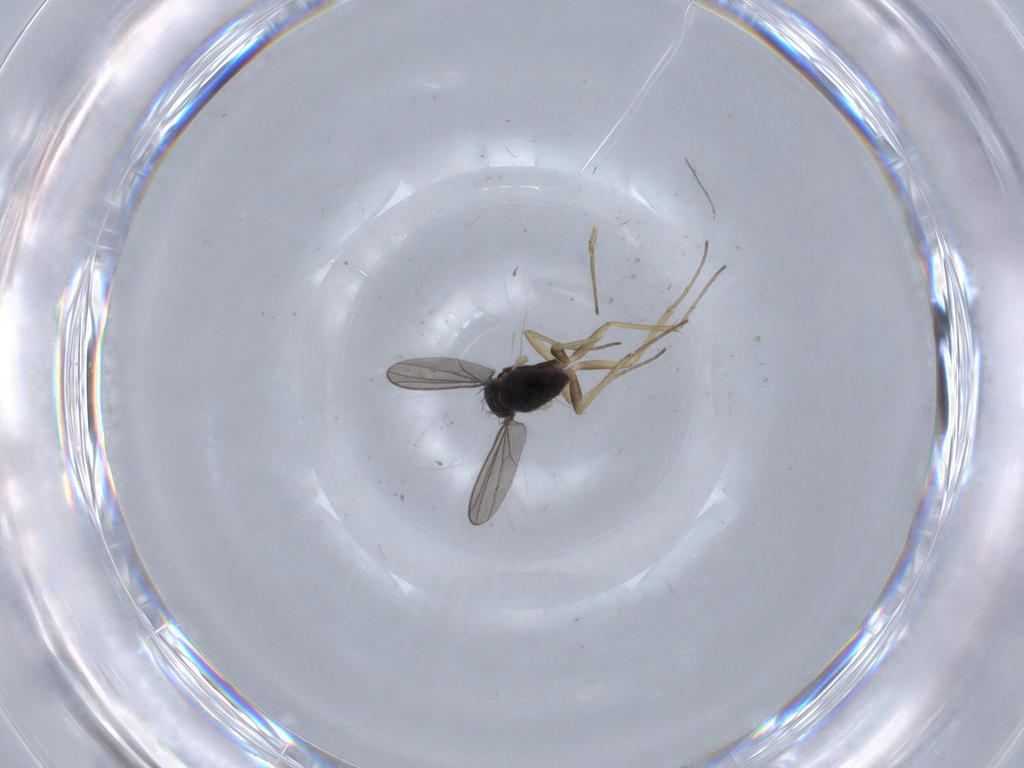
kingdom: Animalia
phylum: Arthropoda
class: Insecta
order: Diptera
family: Dolichopodidae
